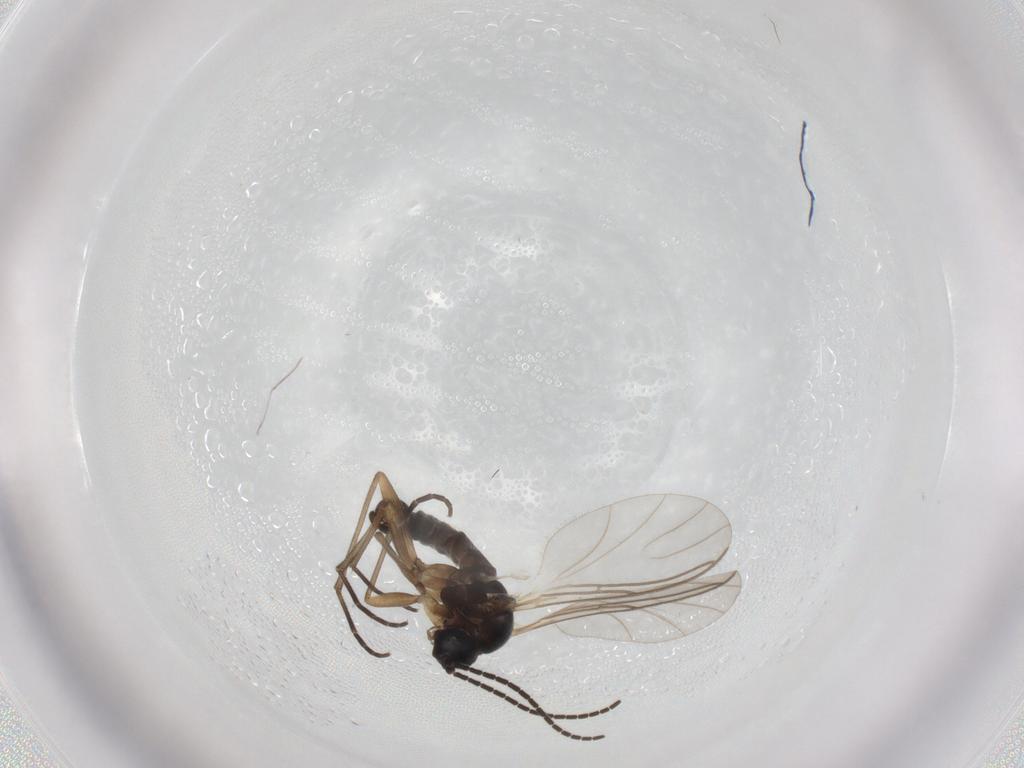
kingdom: Animalia
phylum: Arthropoda
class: Insecta
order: Diptera
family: Sciaridae
